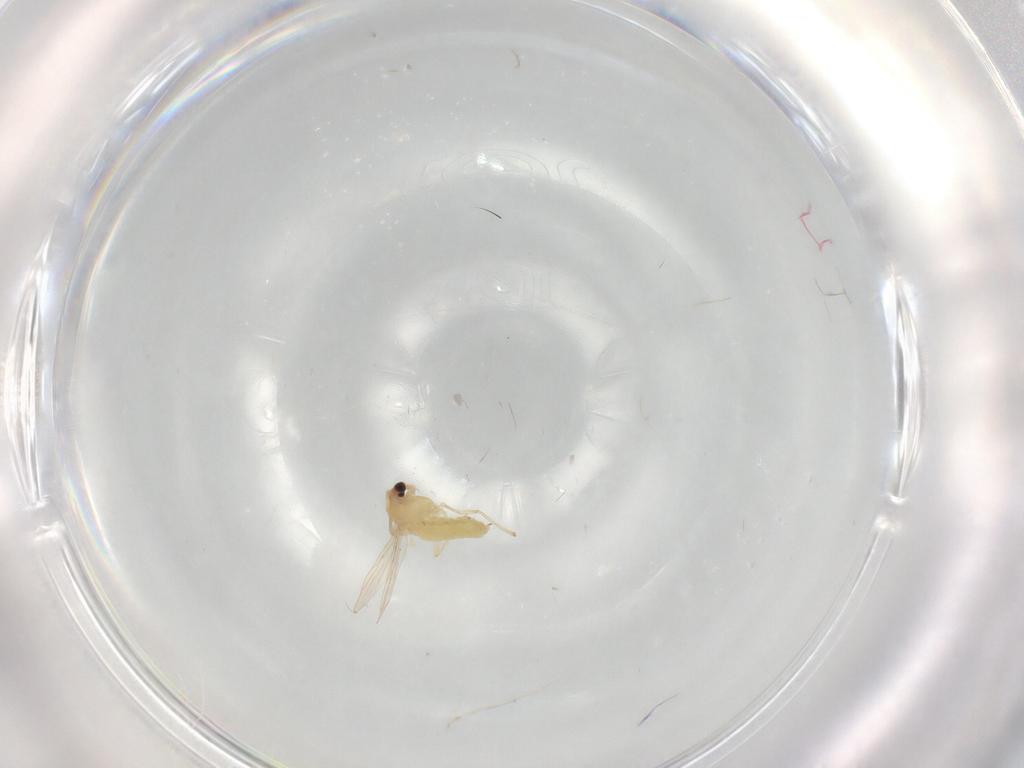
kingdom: Animalia
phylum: Arthropoda
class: Insecta
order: Diptera
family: Chironomidae
